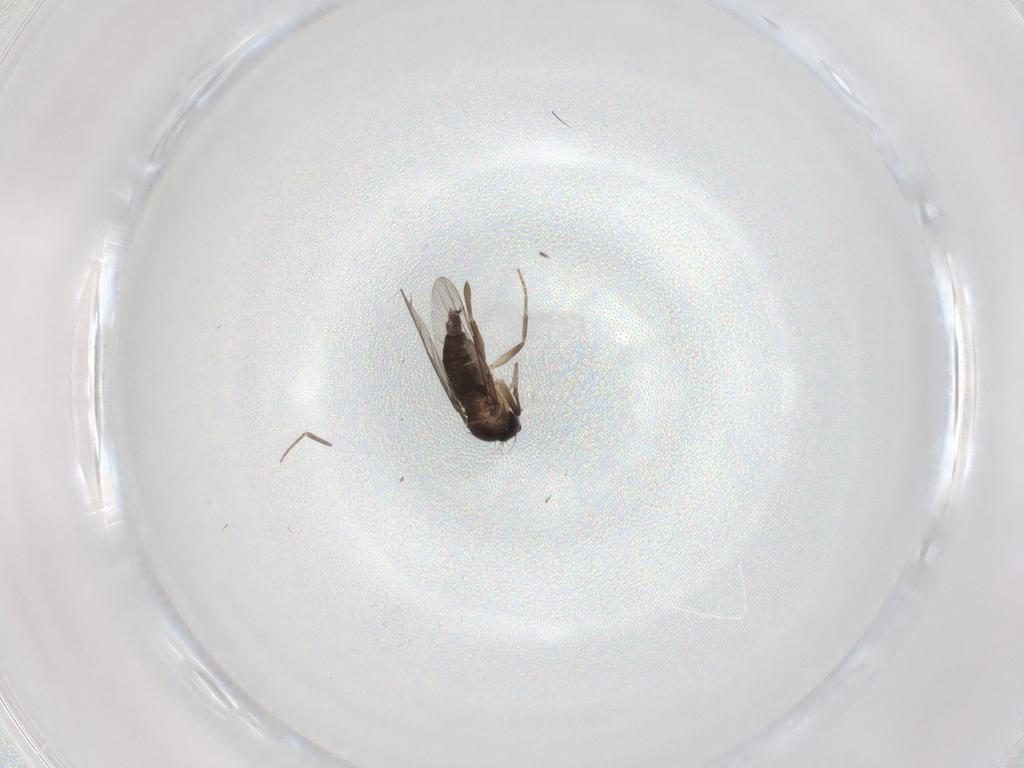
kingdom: Animalia
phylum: Arthropoda
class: Insecta
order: Diptera
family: Phoridae
